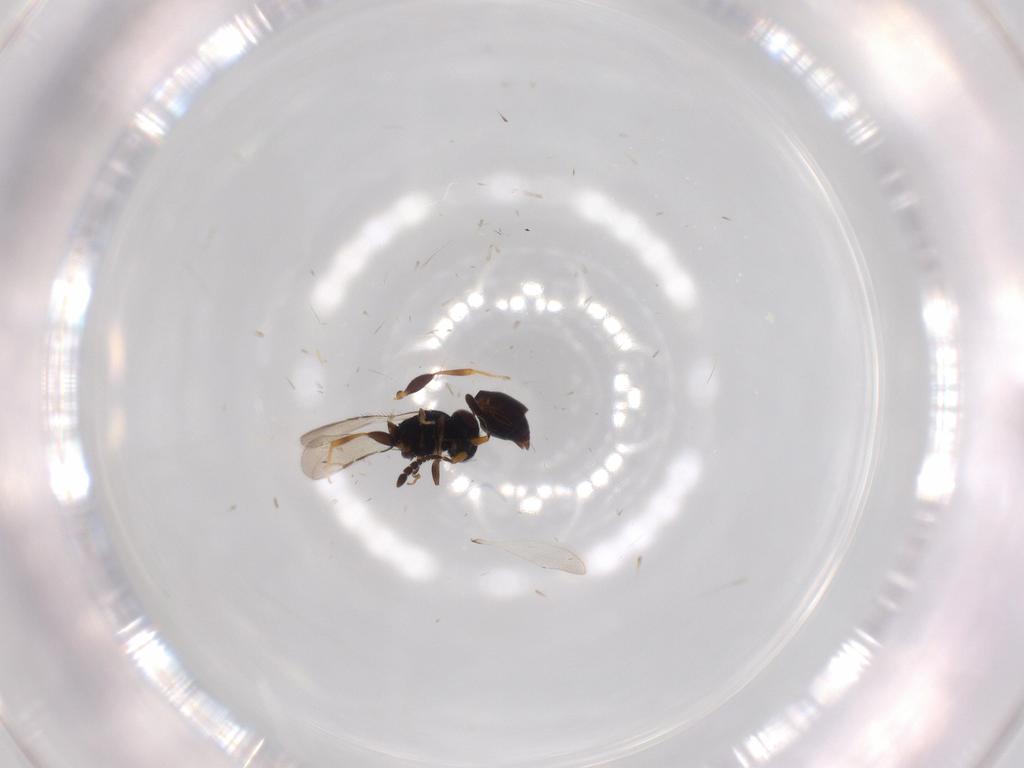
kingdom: Animalia
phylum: Arthropoda
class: Insecta
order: Hymenoptera
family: Ceraphronidae
